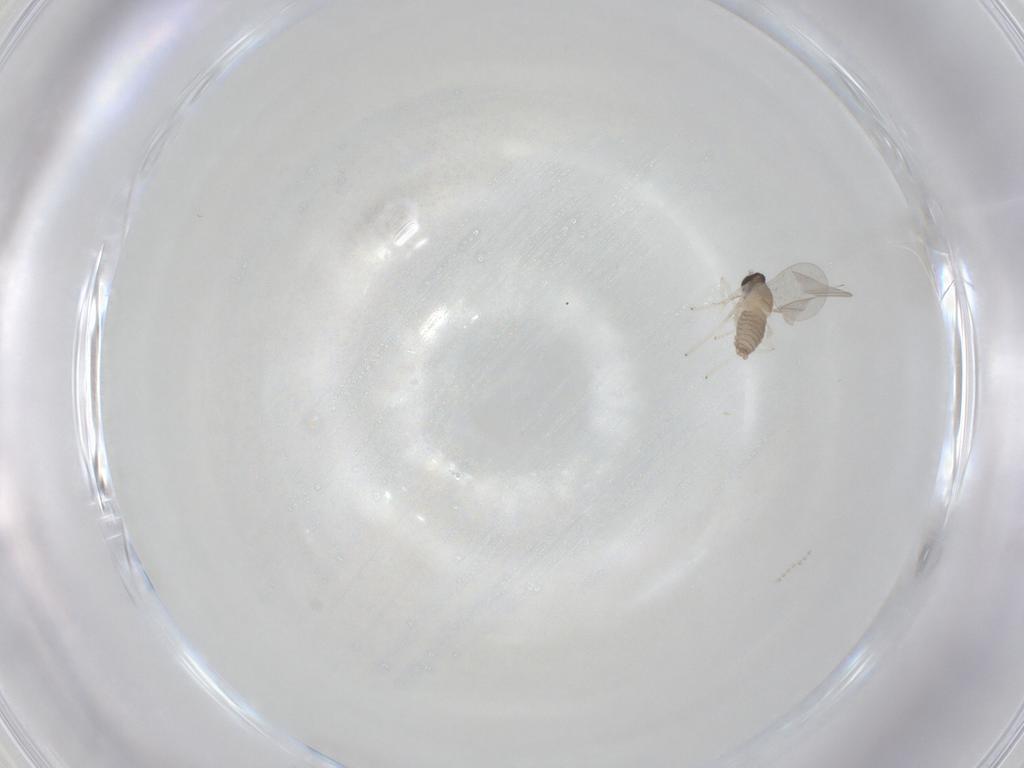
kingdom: Animalia
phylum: Arthropoda
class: Insecta
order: Diptera
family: Cecidomyiidae
